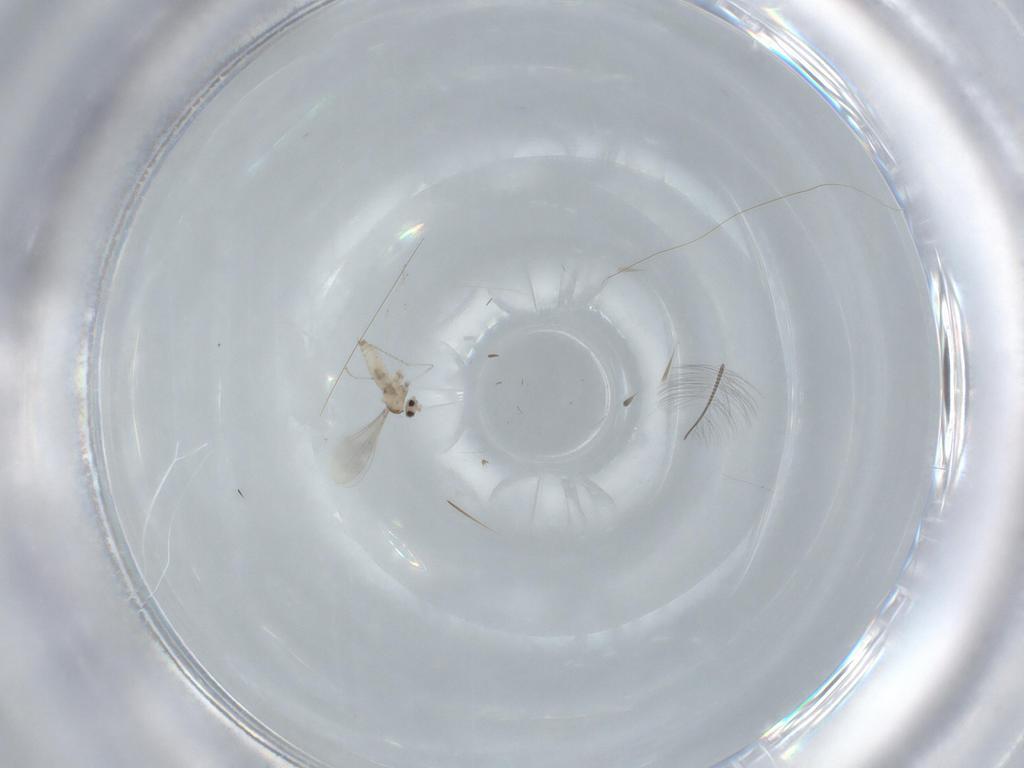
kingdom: Animalia
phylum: Arthropoda
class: Insecta
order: Diptera
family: Cecidomyiidae
